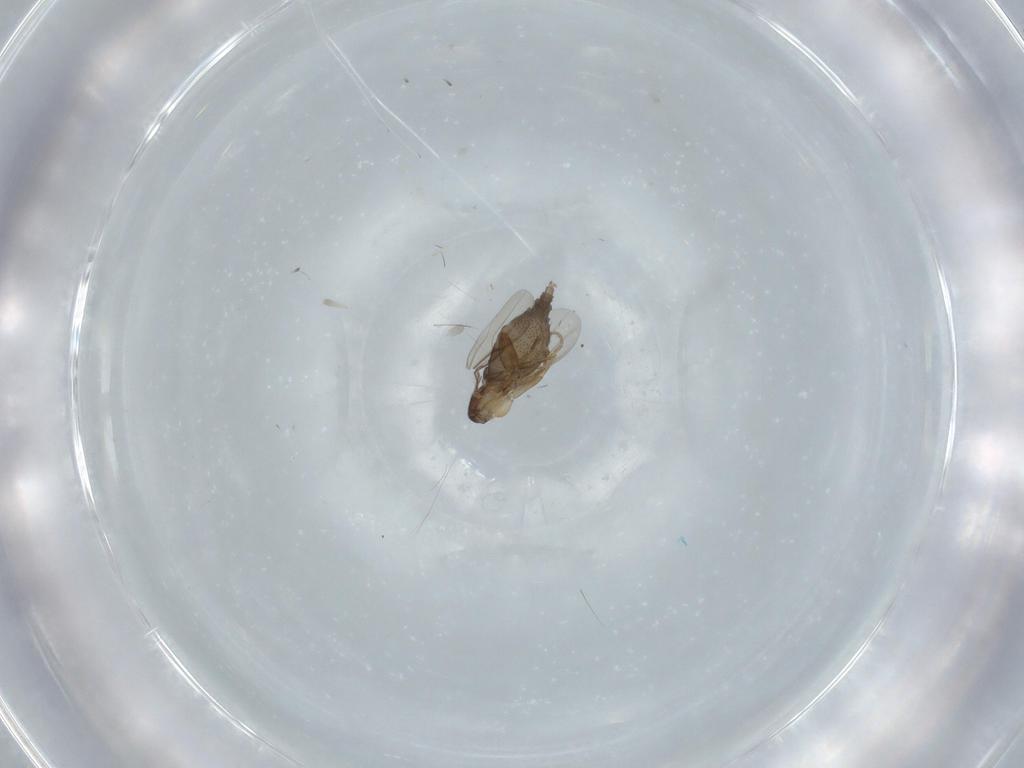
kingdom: Animalia
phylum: Arthropoda
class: Insecta
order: Diptera
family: Phoridae
